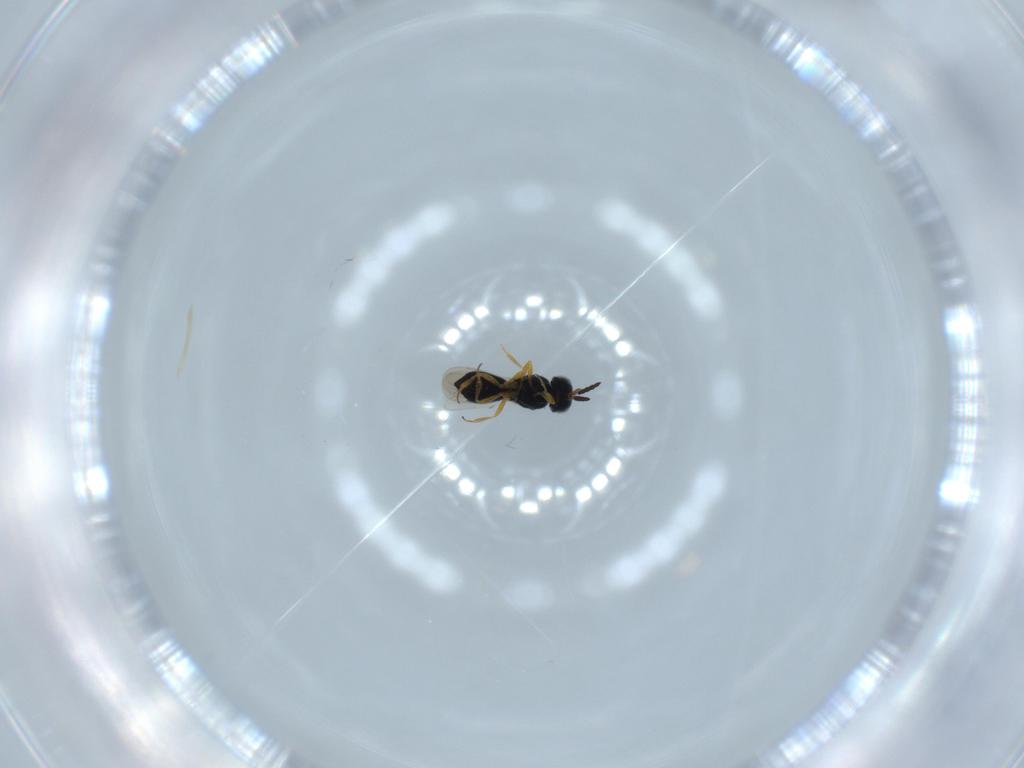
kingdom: Animalia
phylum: Arthropoda
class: Insecta
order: Hymenoptera
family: Scelionidae
